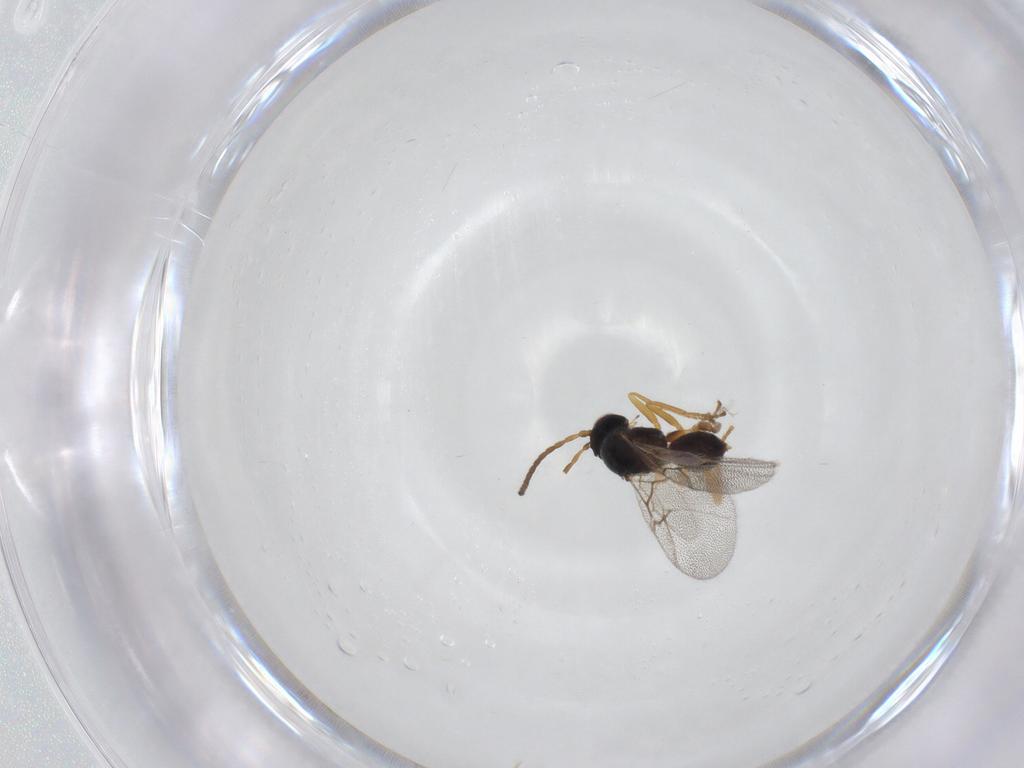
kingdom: Animalia
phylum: Arthropoda
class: Insecta
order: Hymenoptera
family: Cynipidae
